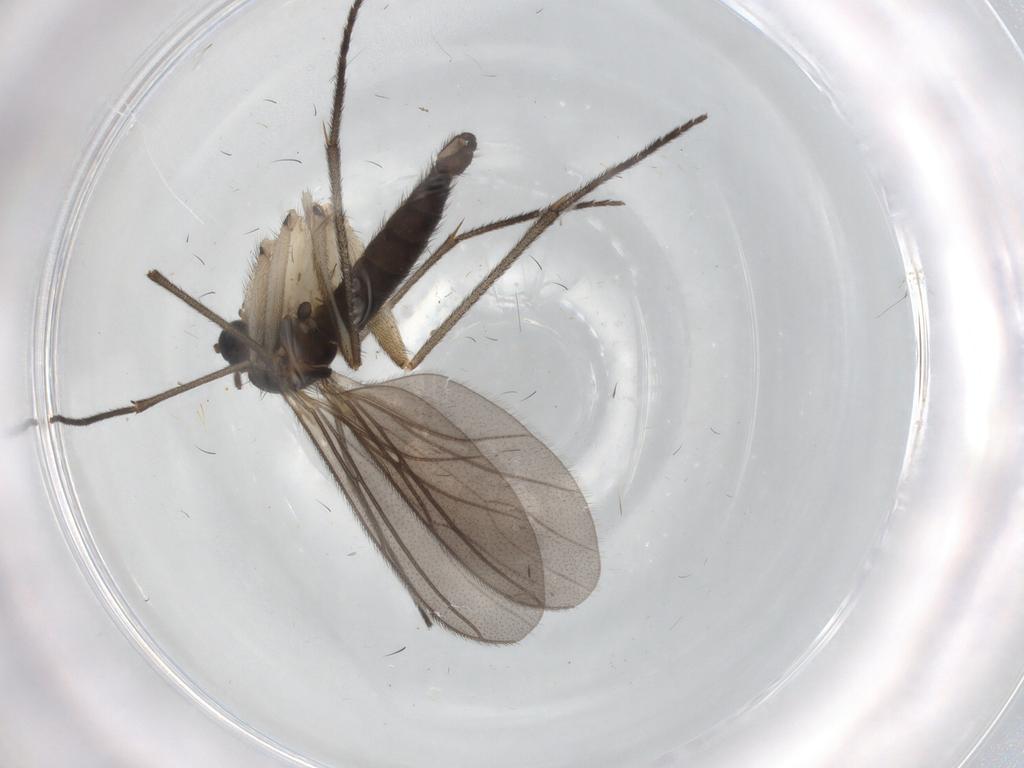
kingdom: Animalia
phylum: Arthropoda
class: Insecta
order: Diptera
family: Sciaridae
